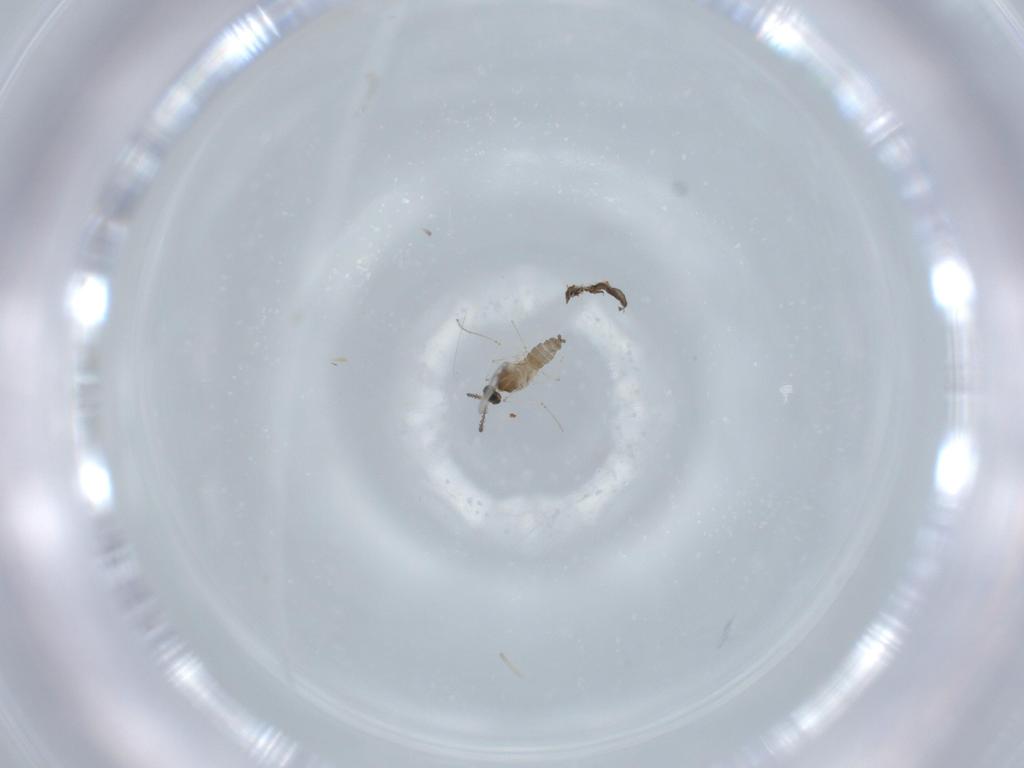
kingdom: Animalia
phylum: Arthropoda
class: Insecta
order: Diptera
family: Cecidomyiidae
